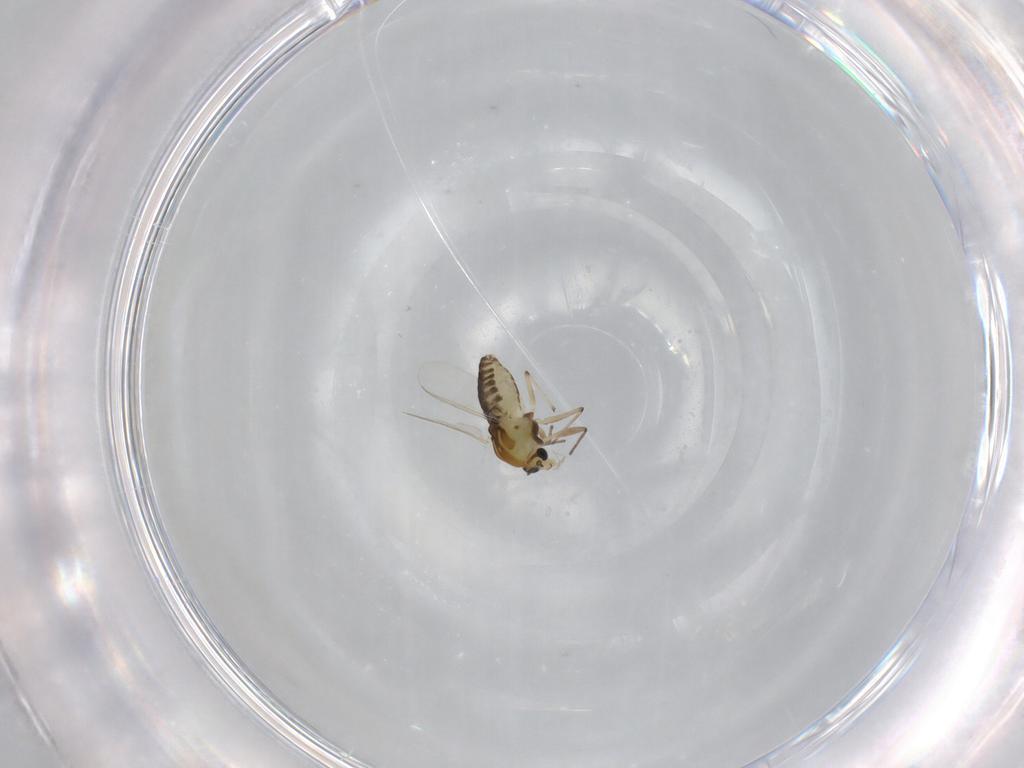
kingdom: Animalia
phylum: Arthropoda
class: Insecta
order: Diptera
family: Chironomidae
